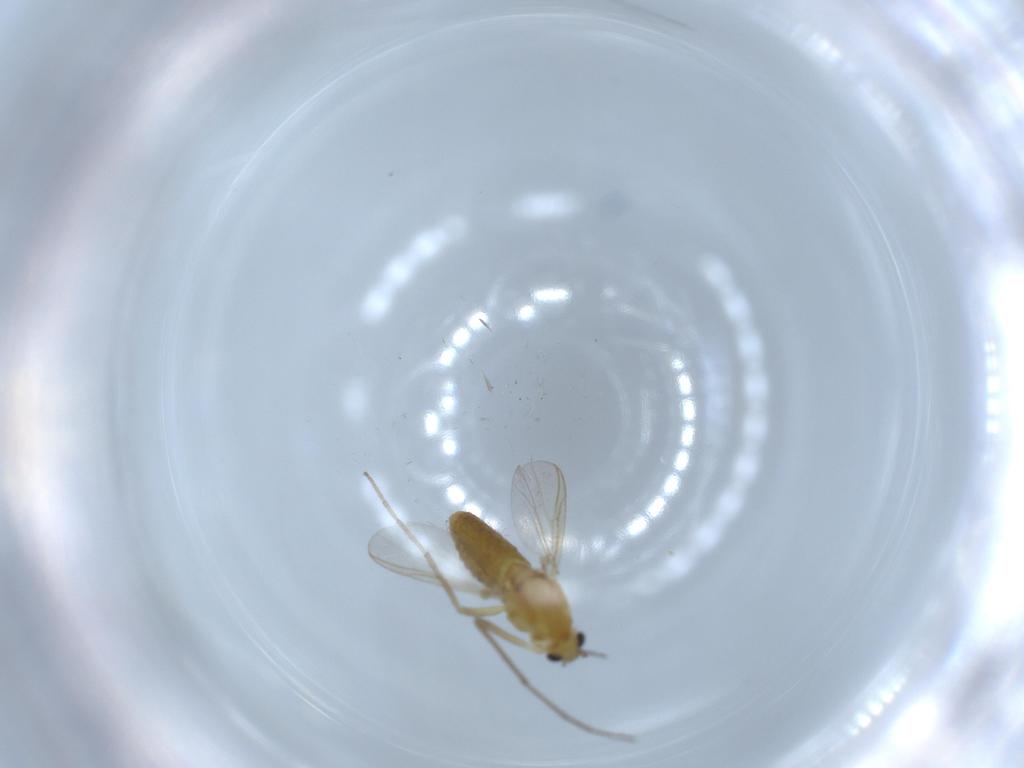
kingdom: Animalia
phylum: Arthropoda
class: Insecta
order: Diptera
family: Chironomidae
